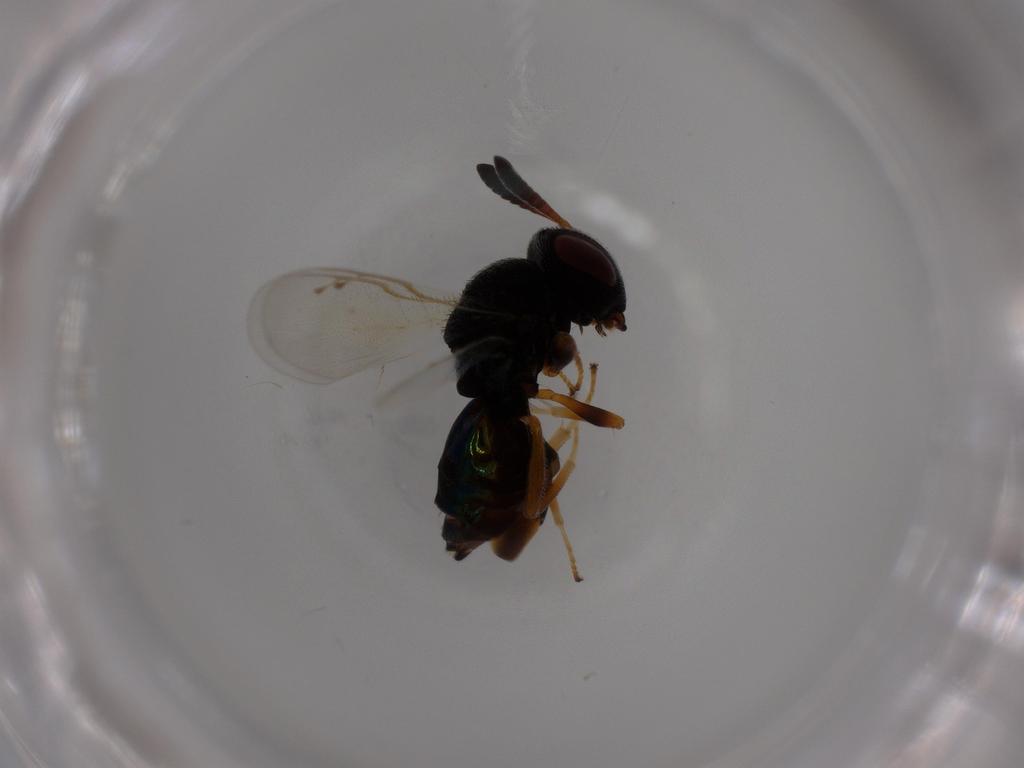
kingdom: Animalia
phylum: Arthropoda
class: Insecta
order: Hymenoptera
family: Agaonidae
